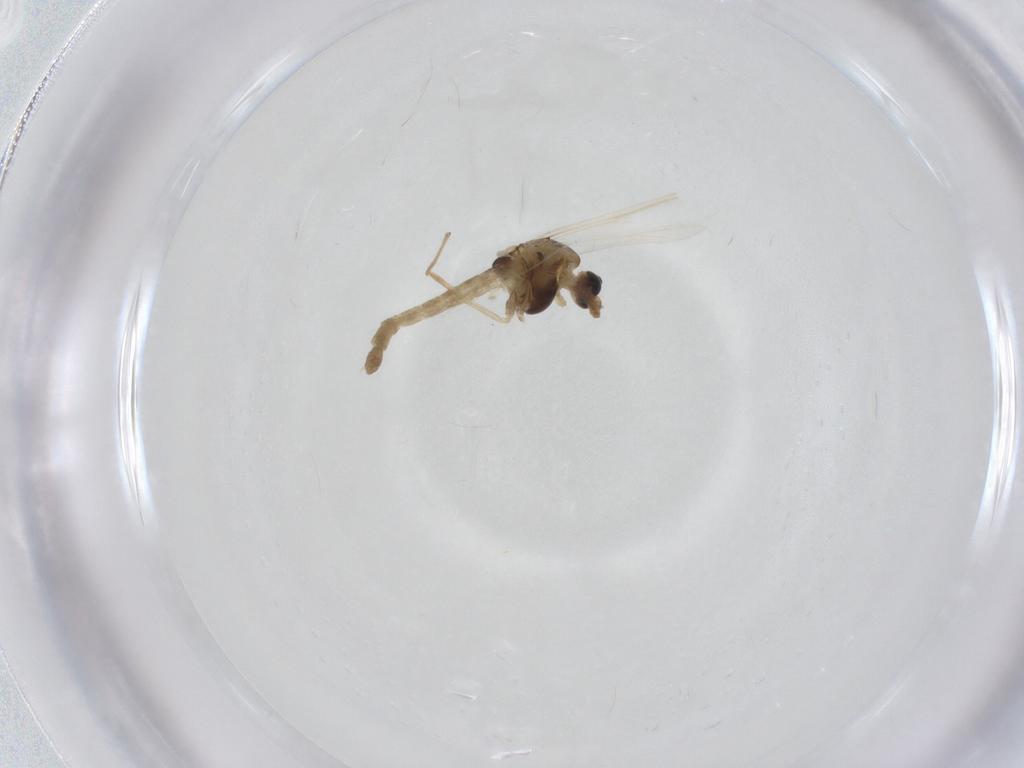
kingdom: Animalia
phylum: Arthropoda
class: Insecta
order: Diptera
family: Chironomidae
